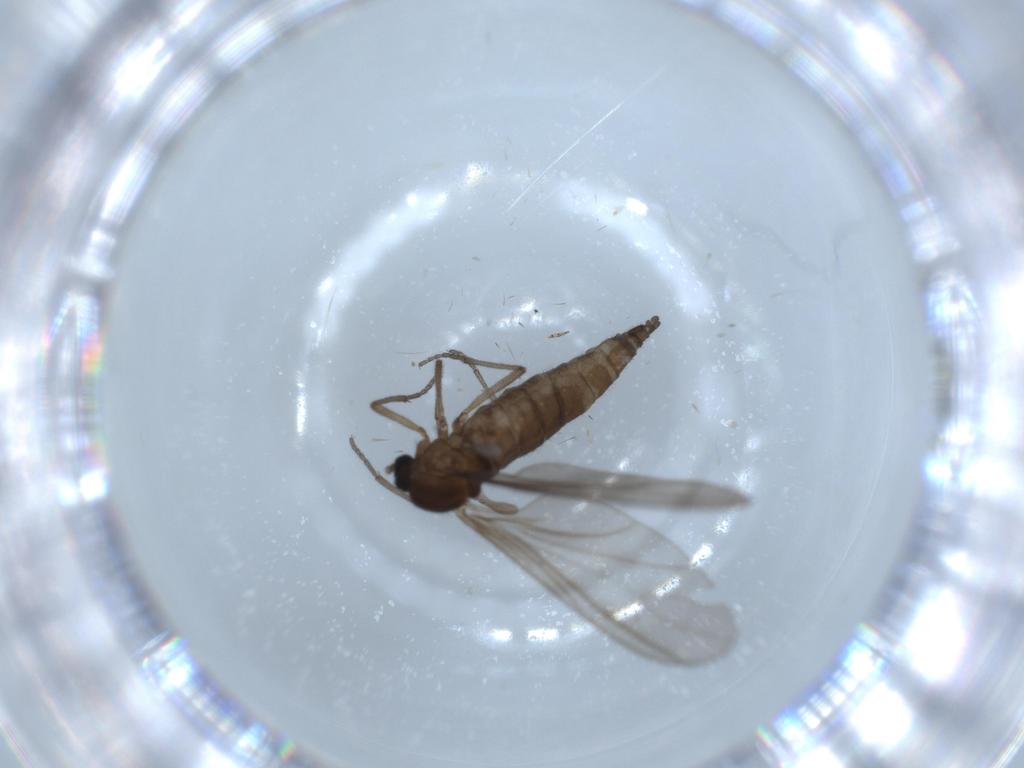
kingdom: Animalia
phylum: Arthropoda
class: Insecta
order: Diptera
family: Sciaridae
